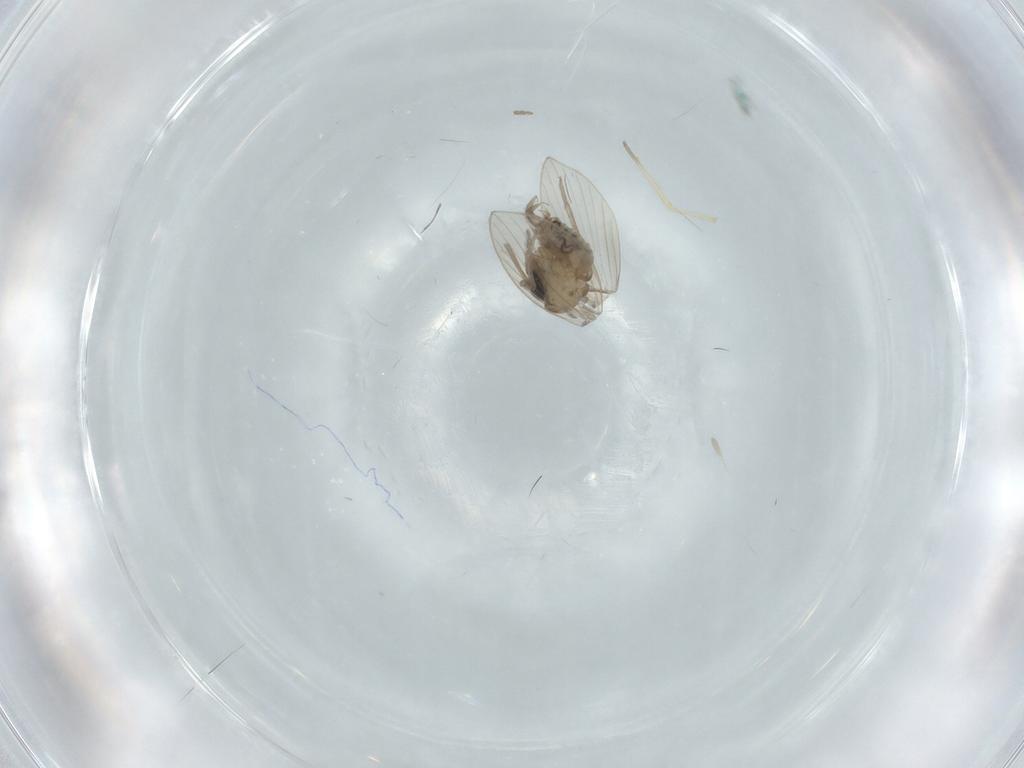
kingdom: Animalia
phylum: Arthropoda
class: Insecta
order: Diptera
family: Psychodidae
